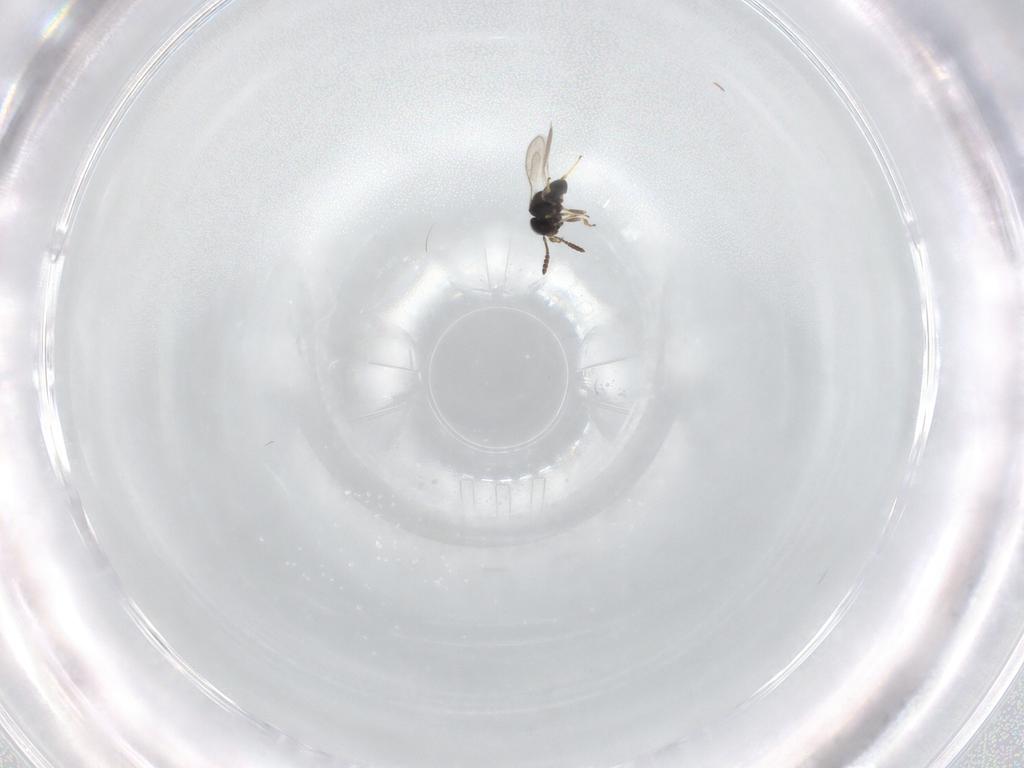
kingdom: Animalia
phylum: Arthropoda
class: Insecta
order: Hymenoptera
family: Scelionidae
